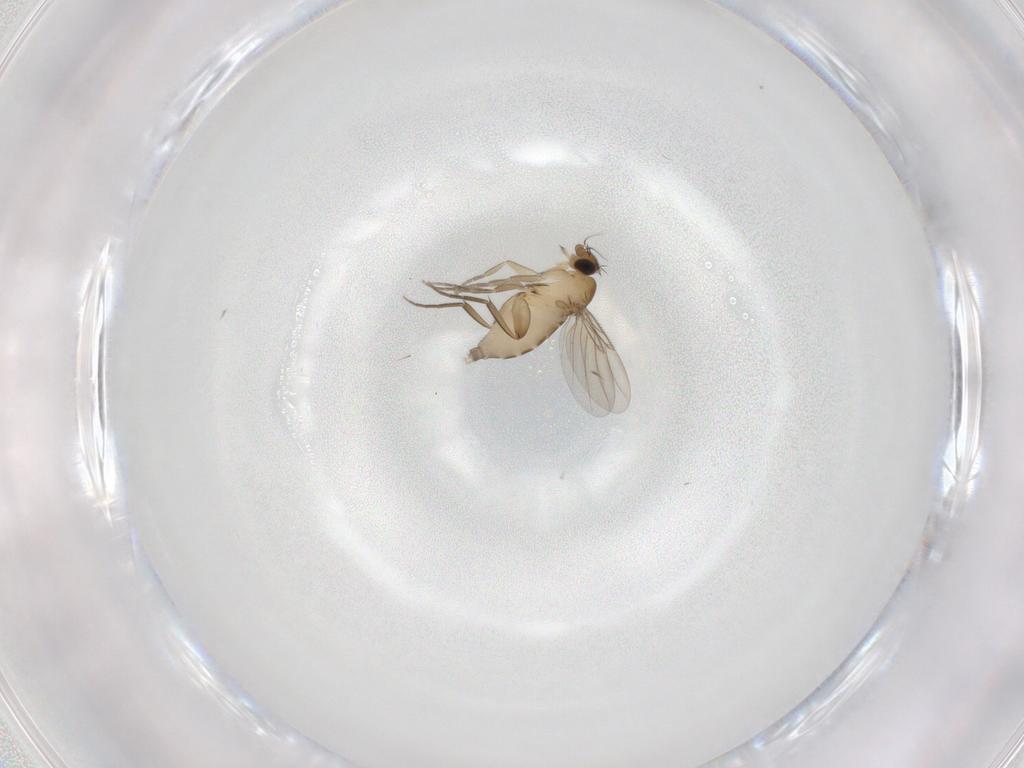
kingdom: Animalia
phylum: Arthropoda
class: Insecta
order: Diptera
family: Phoridae
